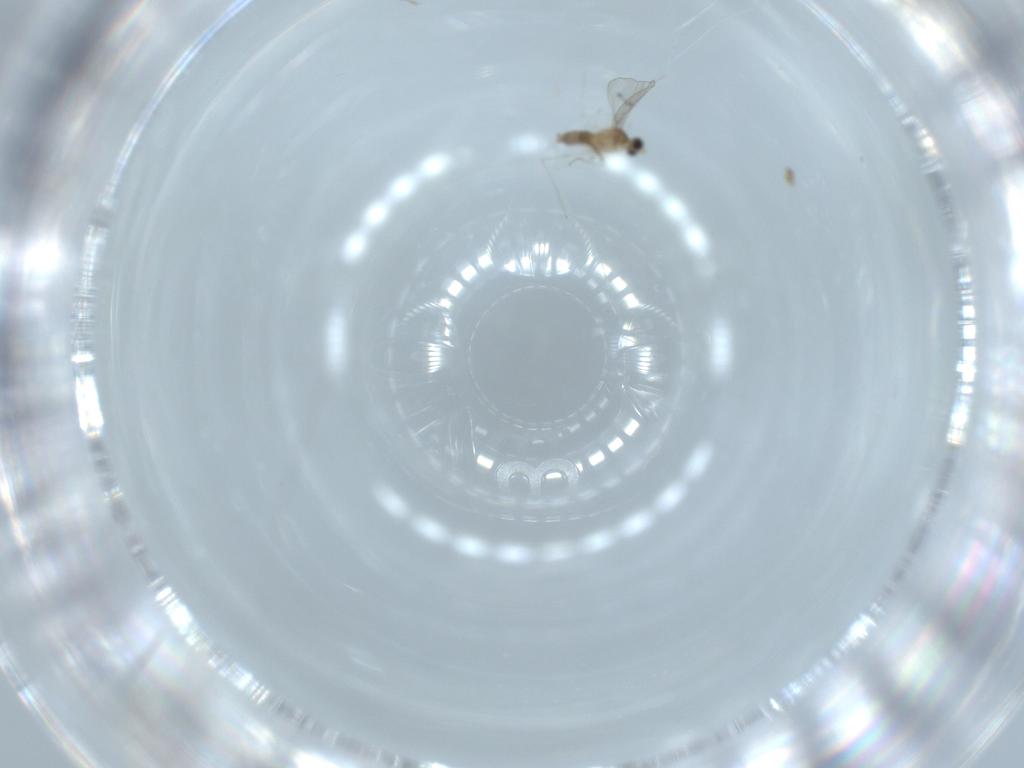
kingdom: Animalia
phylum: Arthropoda
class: Insecta
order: Diptera
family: Cecidomyiidae
